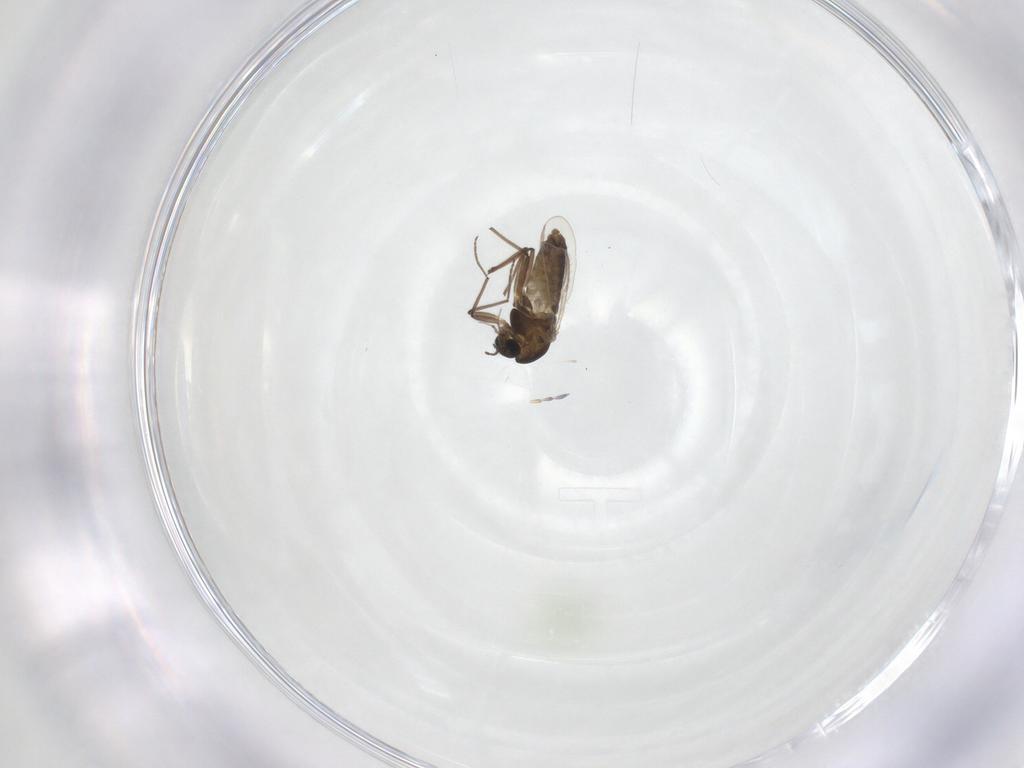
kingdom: Animalia
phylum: Arthropoda
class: Insecta
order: Diptera
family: Chironomidae
